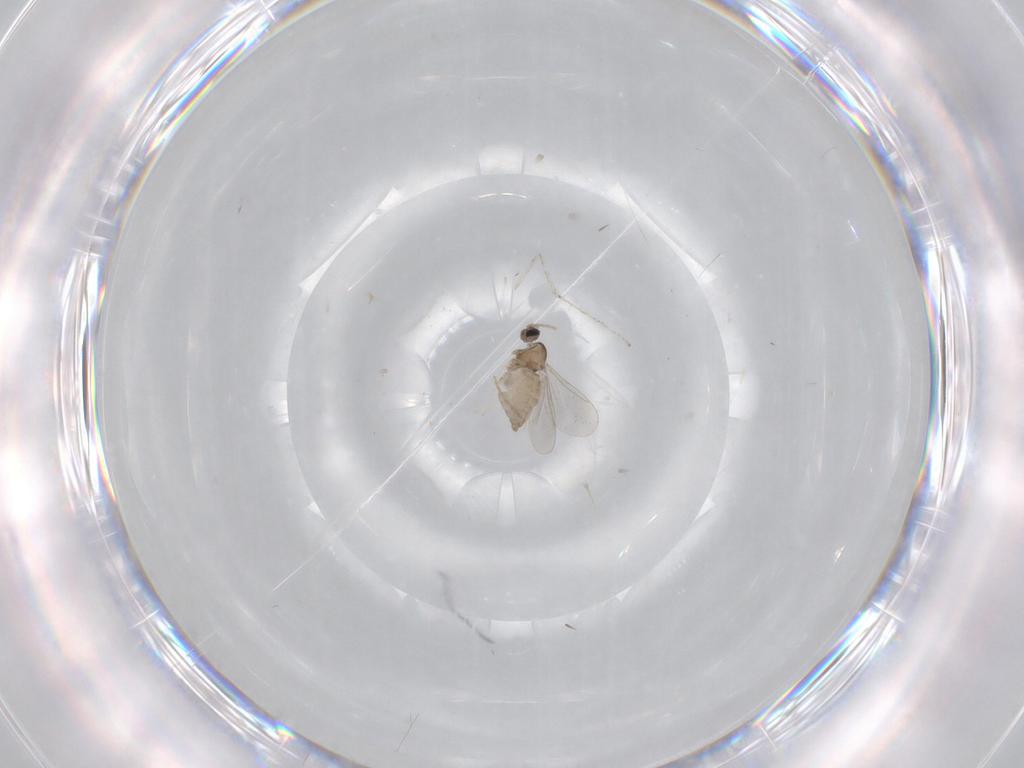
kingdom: Animalia
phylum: Arthropoda
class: Insecta
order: Diptera
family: Cecidomyiidae
